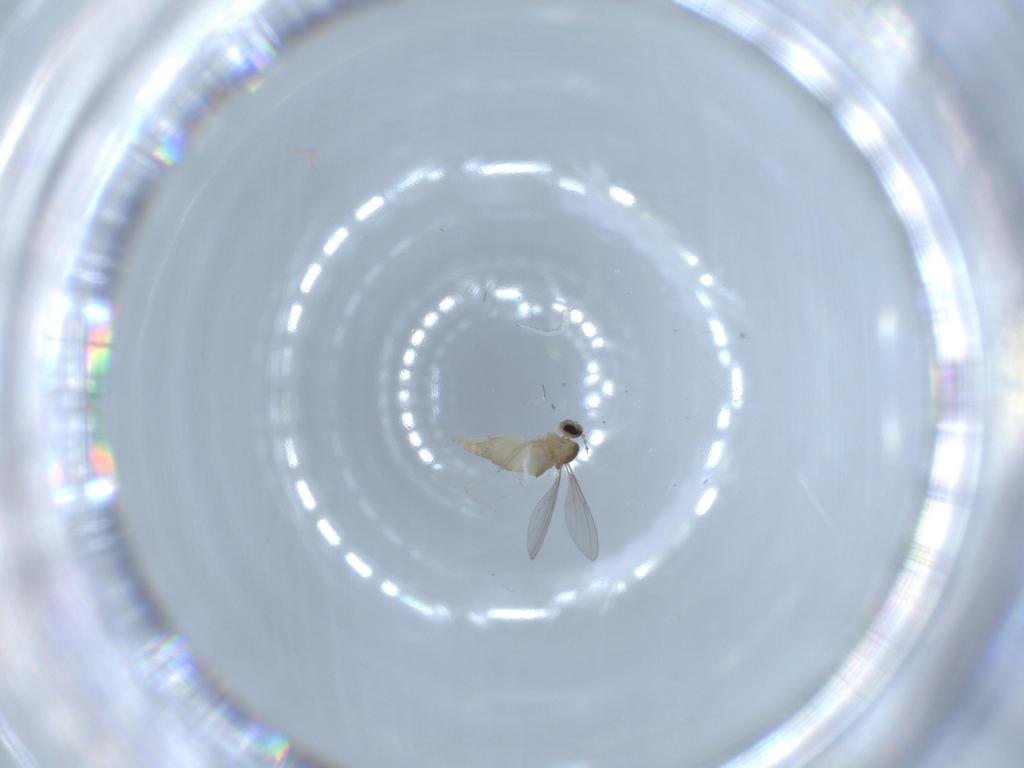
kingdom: Animalia
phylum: Arthropoda
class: Insecta
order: Diptera
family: Cecidomyiidae
